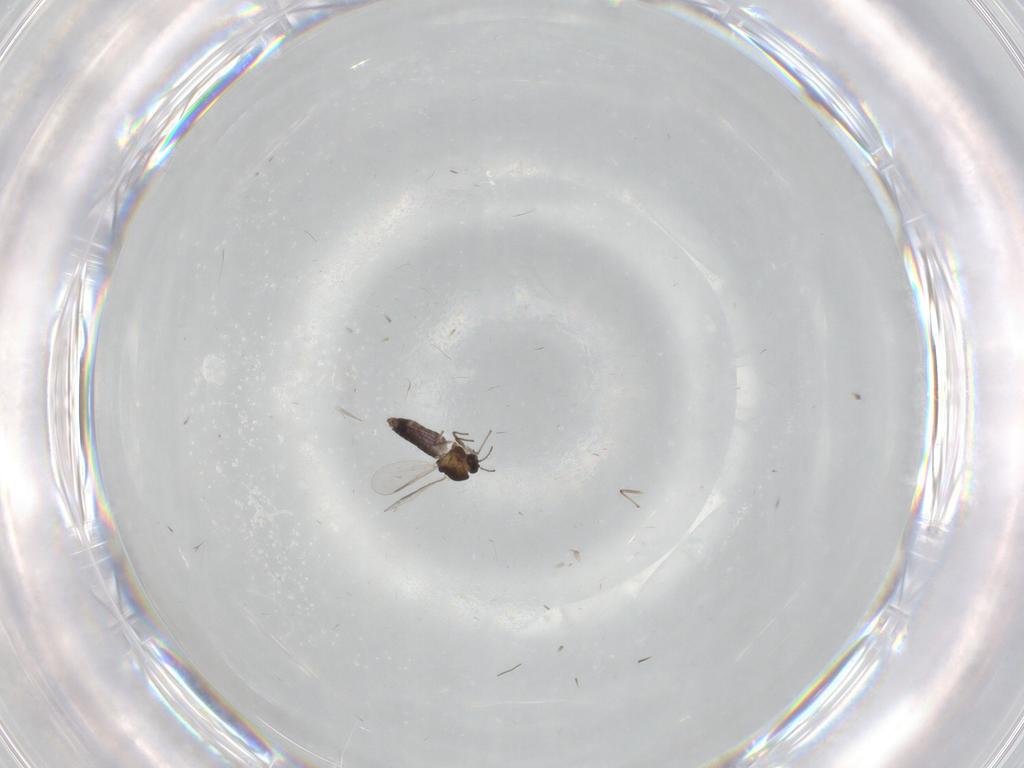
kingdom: Animalia
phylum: Arthropoda
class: Insecta
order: Diptera
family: Chironomidae
